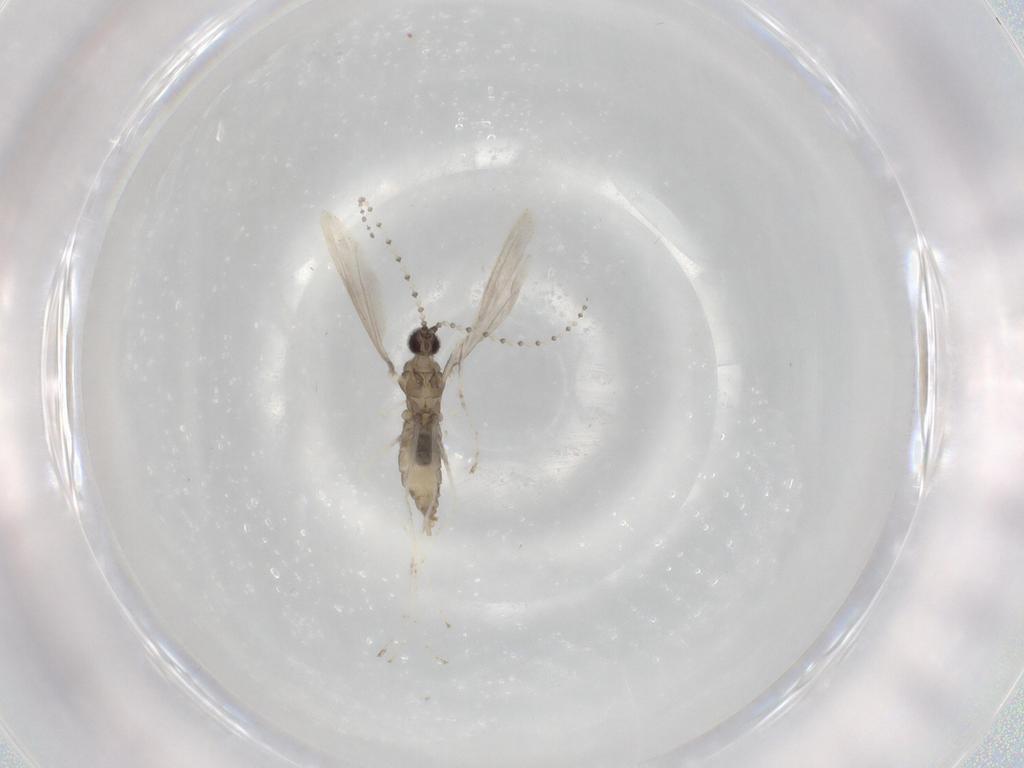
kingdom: Animalia
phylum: Arthropoda
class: Insecta
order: Diptera
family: Cecidomyiidae
